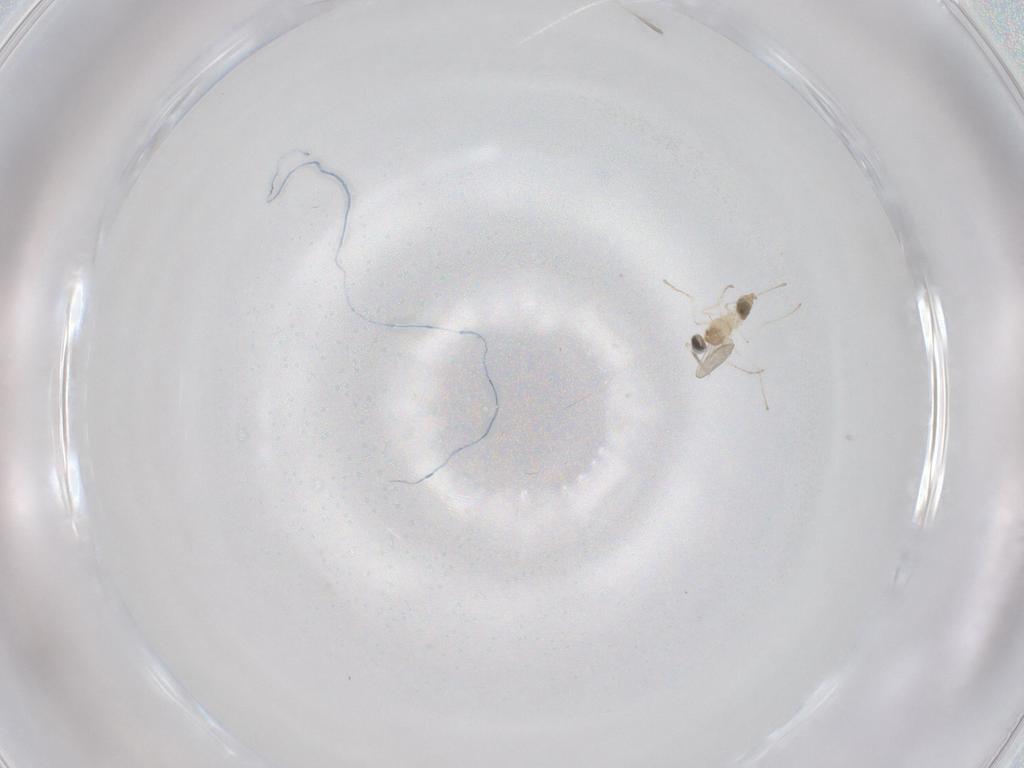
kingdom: Animalia
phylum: Arthropoda
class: Insecta
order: Diptera
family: Cecidomyiidae
